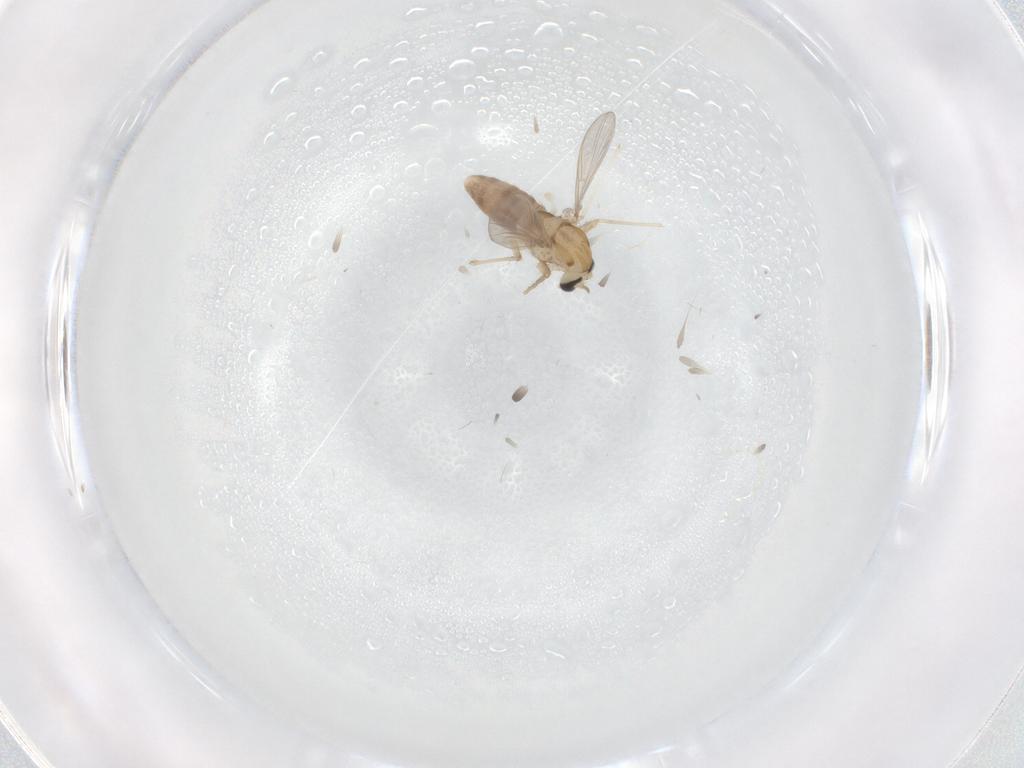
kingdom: Animalia
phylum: Arthropoda
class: Insecta
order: Diptera
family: Chironomidae
